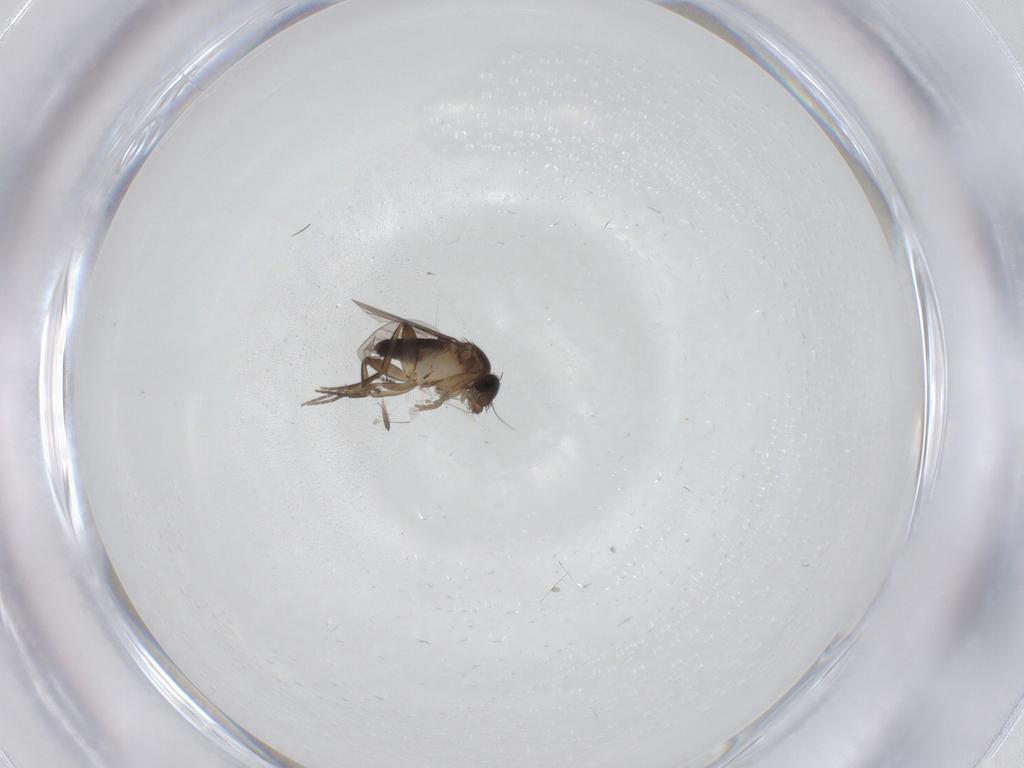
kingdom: Animalia
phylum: Arthropoda
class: Insecta
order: Diptera
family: Phoridae
